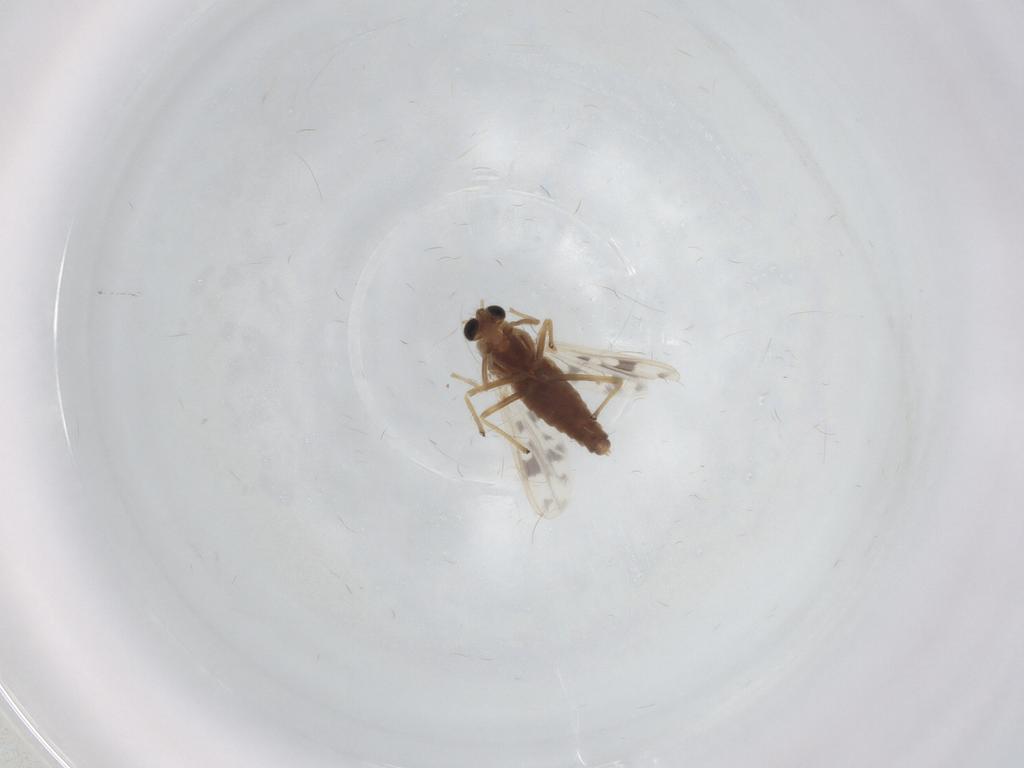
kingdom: Animalia
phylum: Arthropoda
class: Insecta
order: Diptera
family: Chironomidae
